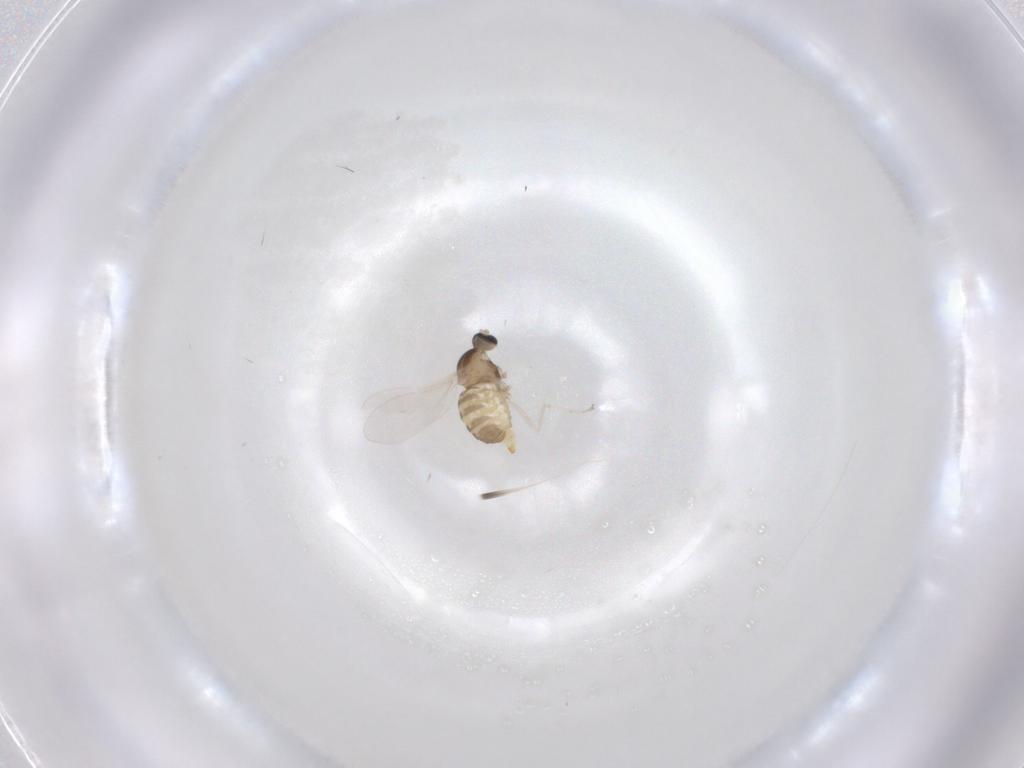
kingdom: Animalia
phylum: Arthropoda
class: Insecta
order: Diptera
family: Cecidomyiidae
